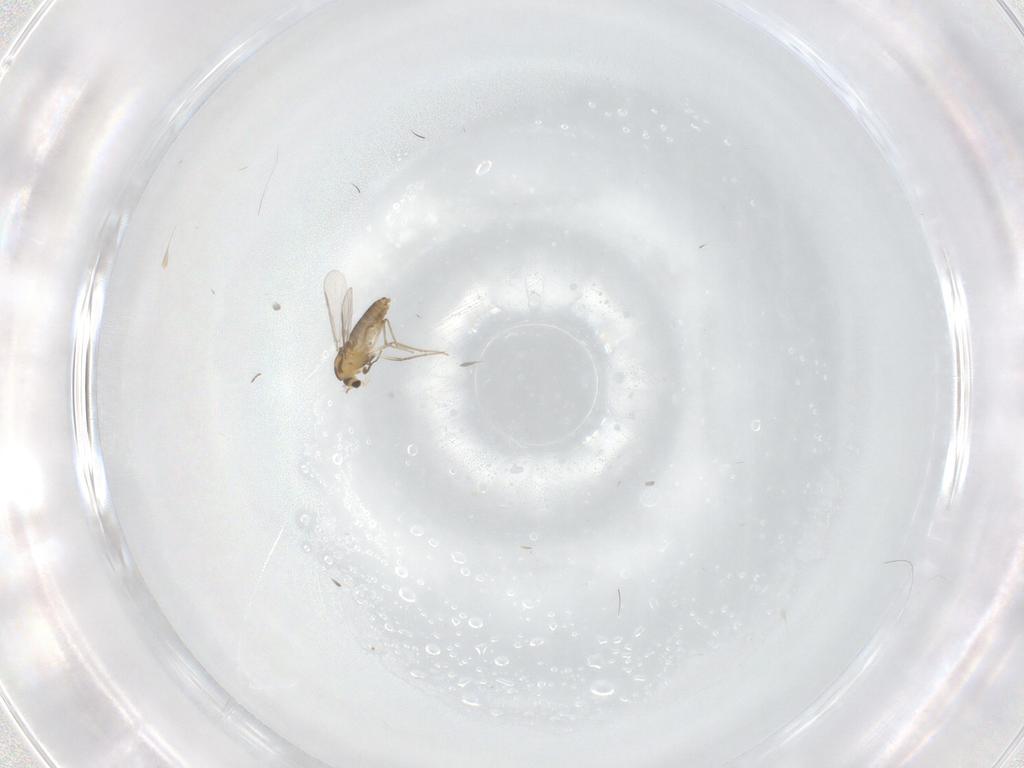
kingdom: Animalia
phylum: Arthropoda
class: Insecta
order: Diptera
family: Chironomidae
